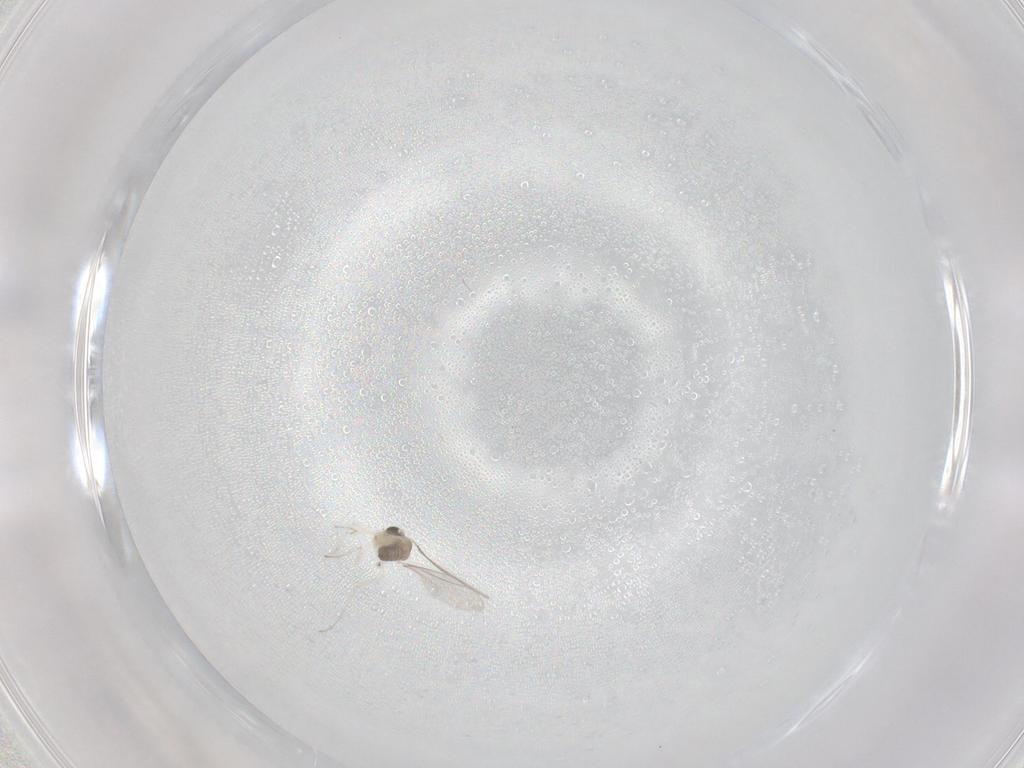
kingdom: Animalia
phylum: Arthropoda
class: Insecta
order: Diptera
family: Cecidomyiidae
